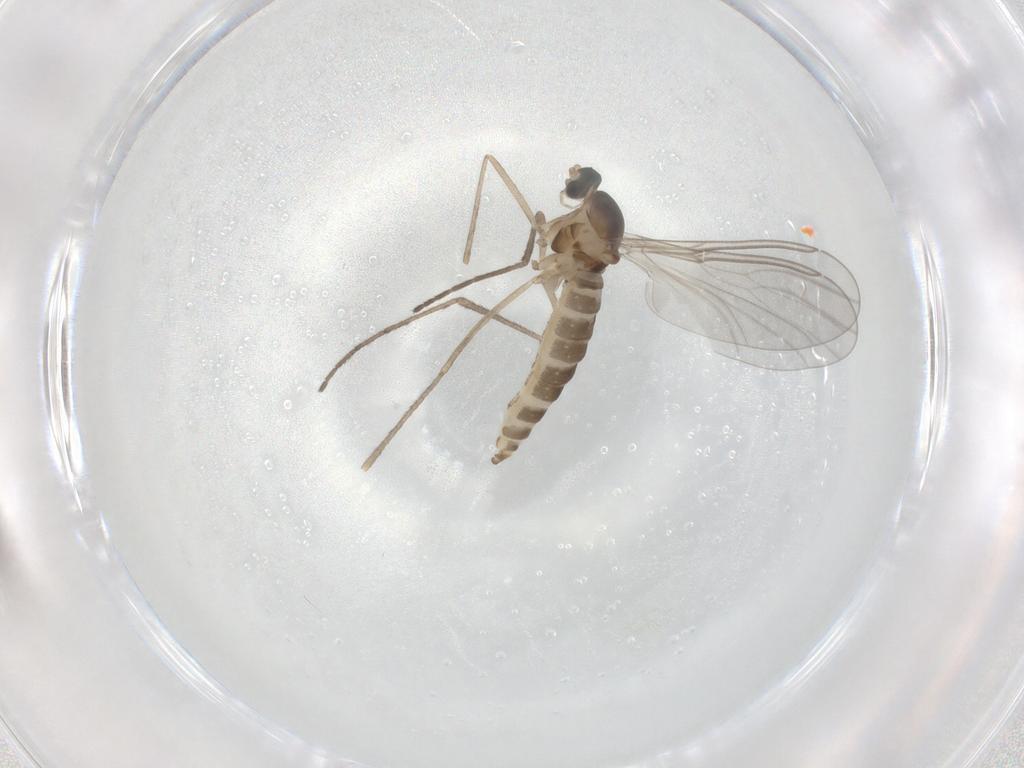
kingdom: Animalia
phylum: Arthropoda
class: Insecta
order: Diptera
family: Cecidomyiidae
